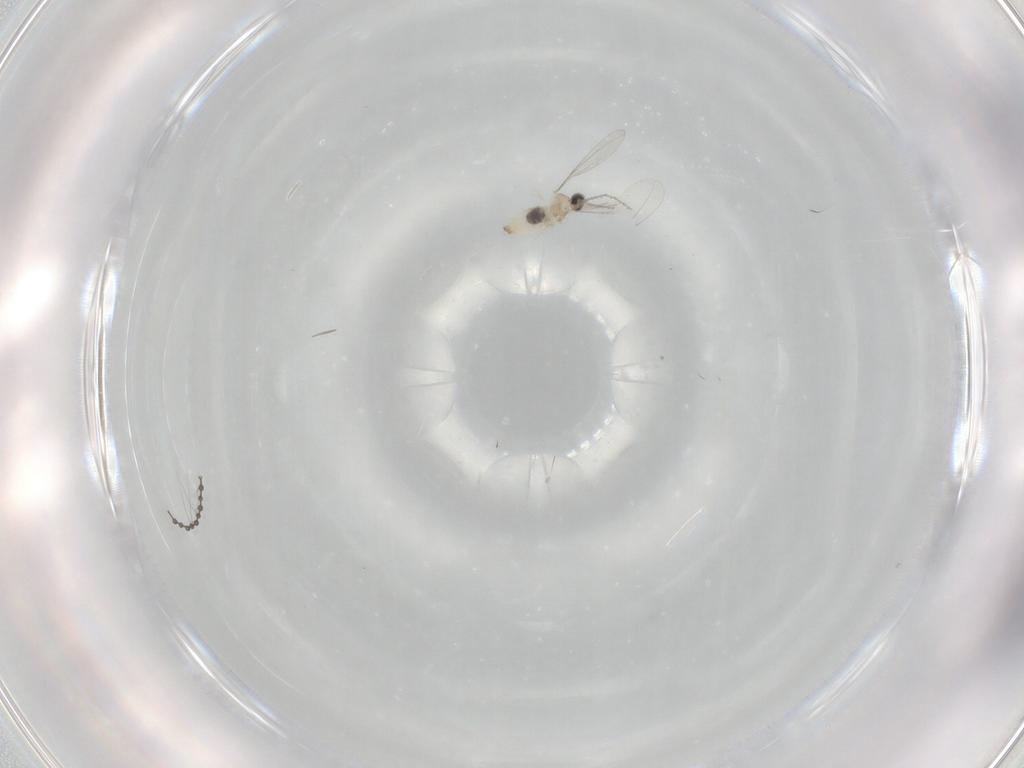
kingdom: Animalia
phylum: Arthropoda
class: Insecta
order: Diptera
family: Cecidomyiidae
